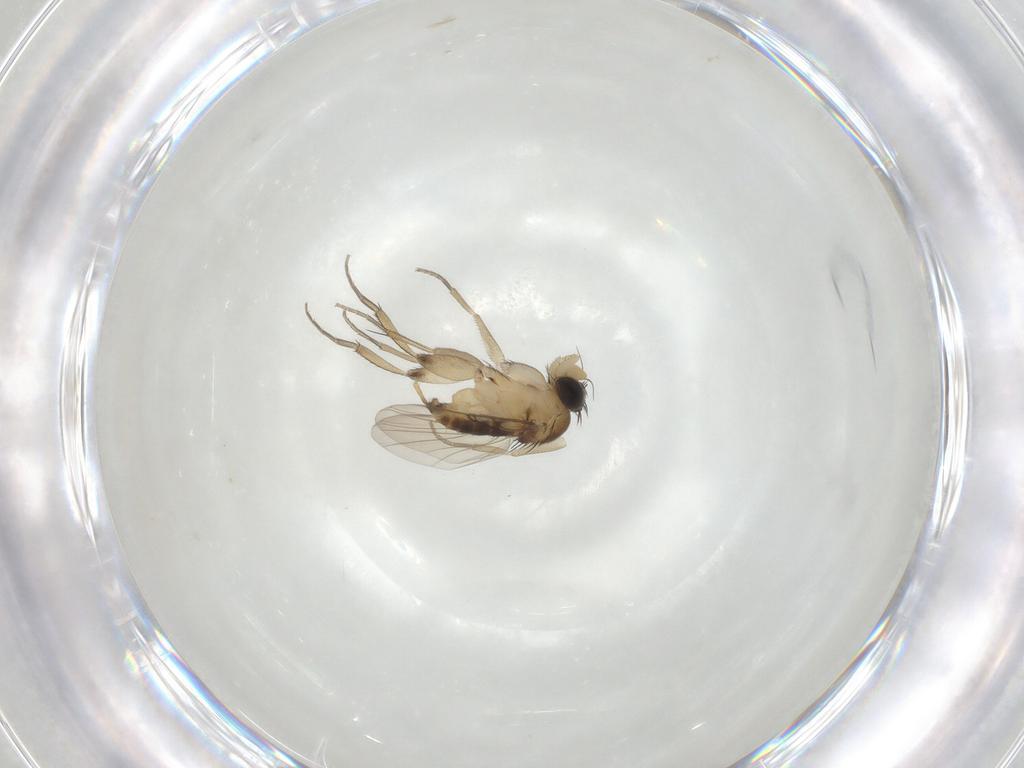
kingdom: Animalia
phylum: Arthropoda
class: Insecta
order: Diptera
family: Phoridae
